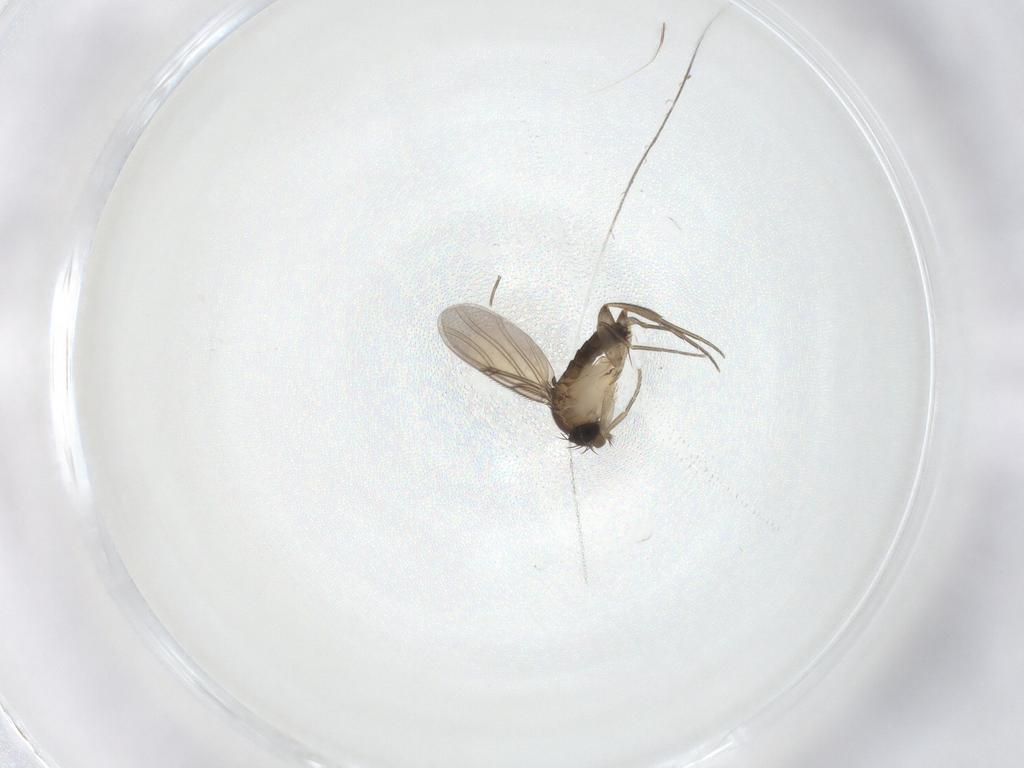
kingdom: Animalia
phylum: Arthropoda
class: Insecta
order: Diptera
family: Phoridae
